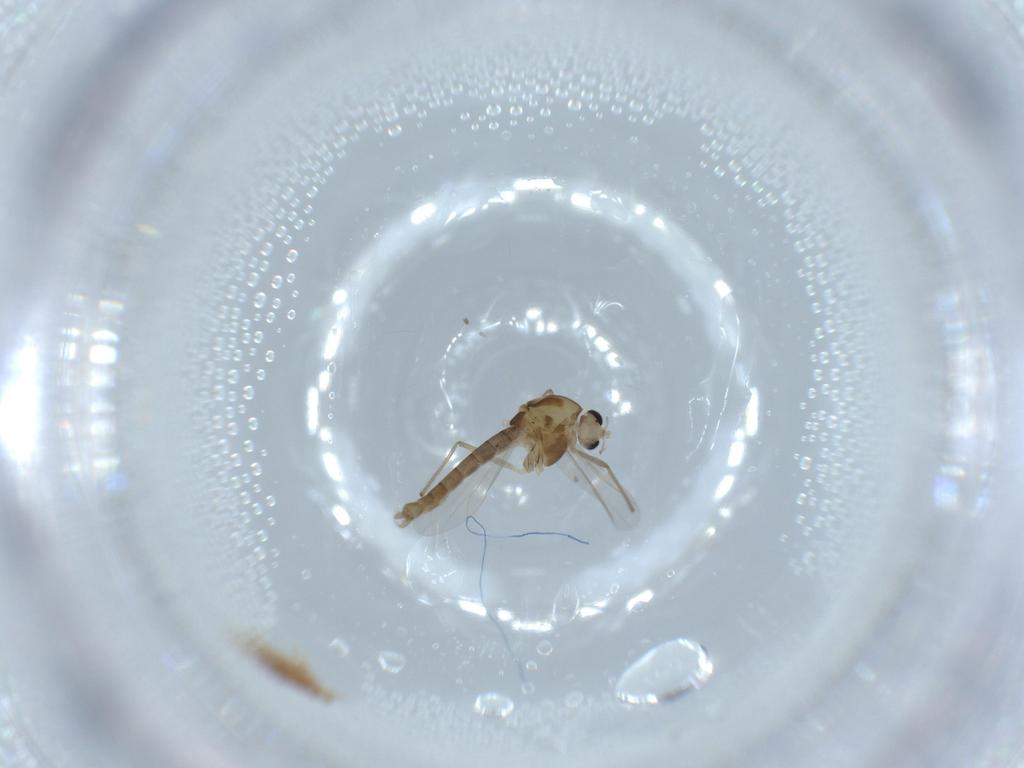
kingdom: Animalia
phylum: Arthropoda
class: Insecta
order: Diptera
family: Chironomidae
